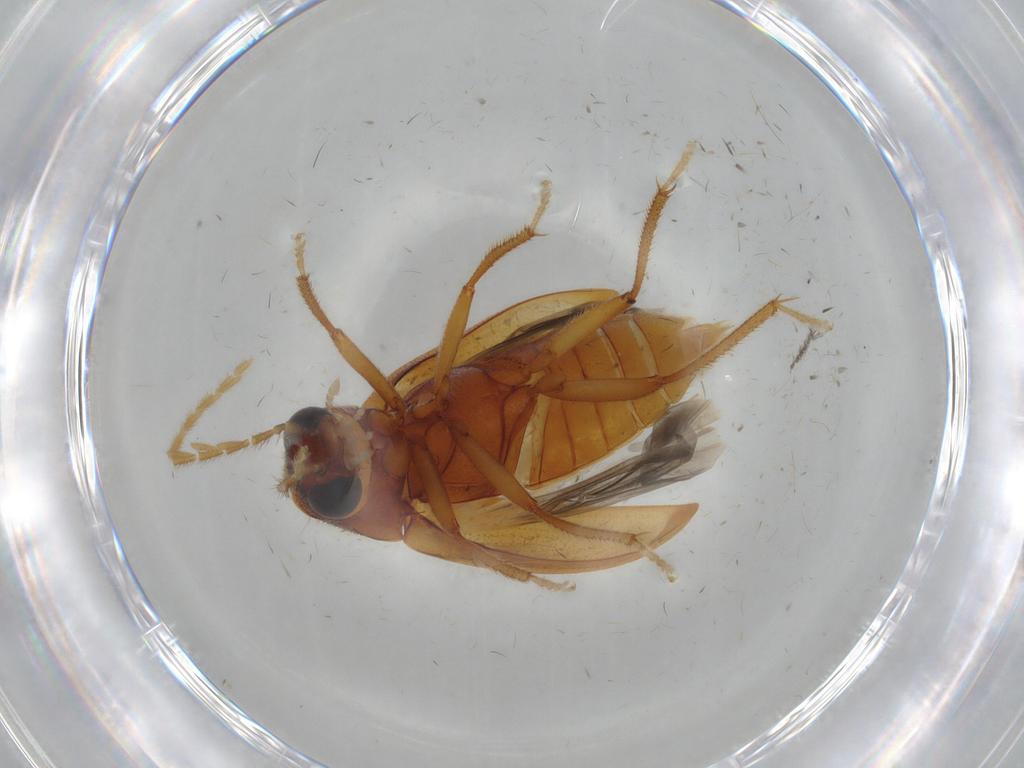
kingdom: Animalia
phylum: Arthropoda
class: Insecta
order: Coleoptera
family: Ptilodactylidae
